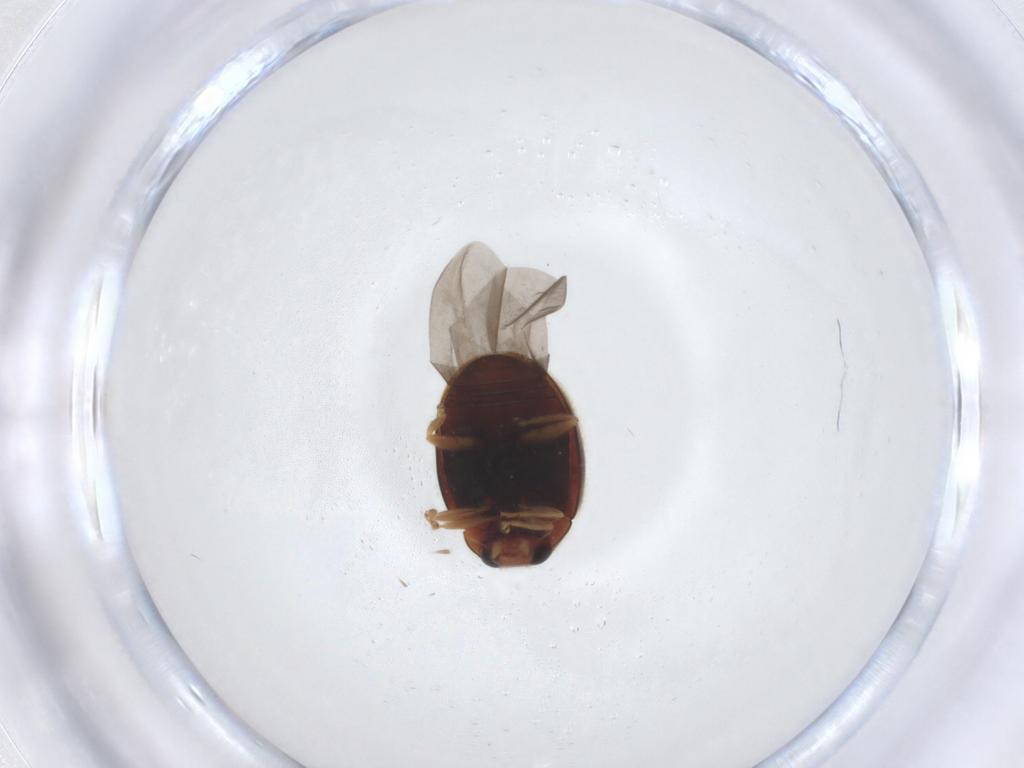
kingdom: Animalia
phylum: Arthropoda
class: Insecta
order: Coleoptera
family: Coccinellidae
